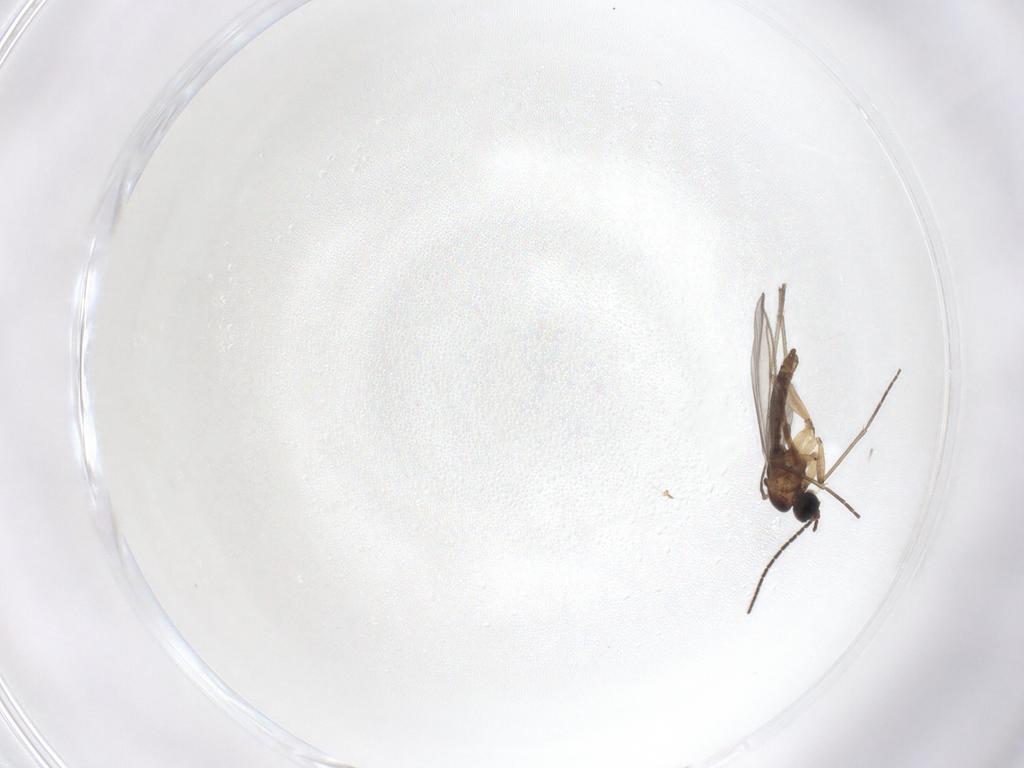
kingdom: Animalia
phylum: Arthropoda
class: Insecta
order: Diptera
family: Sciaridae
